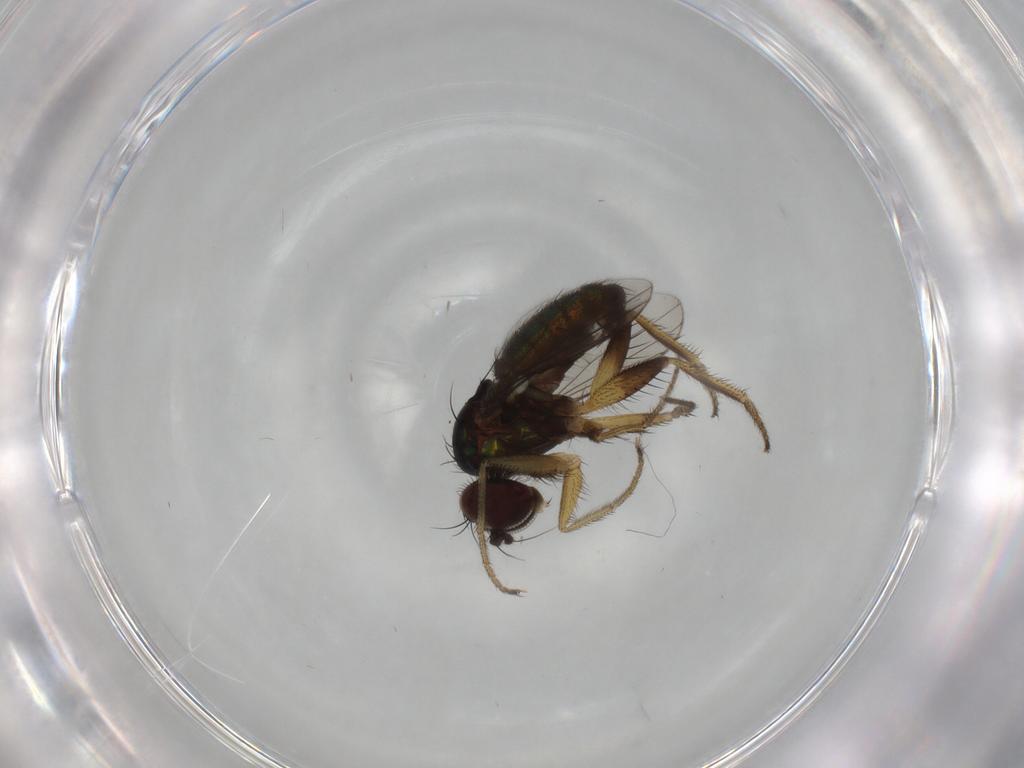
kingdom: Animalia
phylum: Arthropoda
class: Insecta
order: Diptera
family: Dolichopodidae
